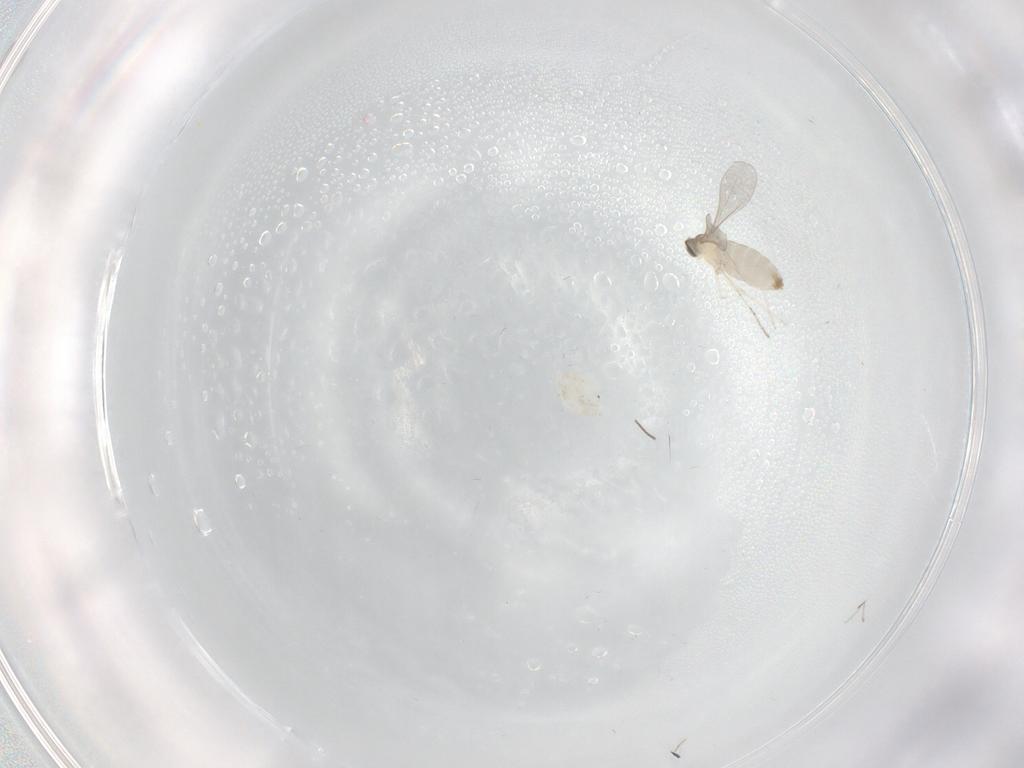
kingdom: Animalia
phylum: Arthropoda
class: Insecta
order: Diptera
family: Cecidomyiidae
